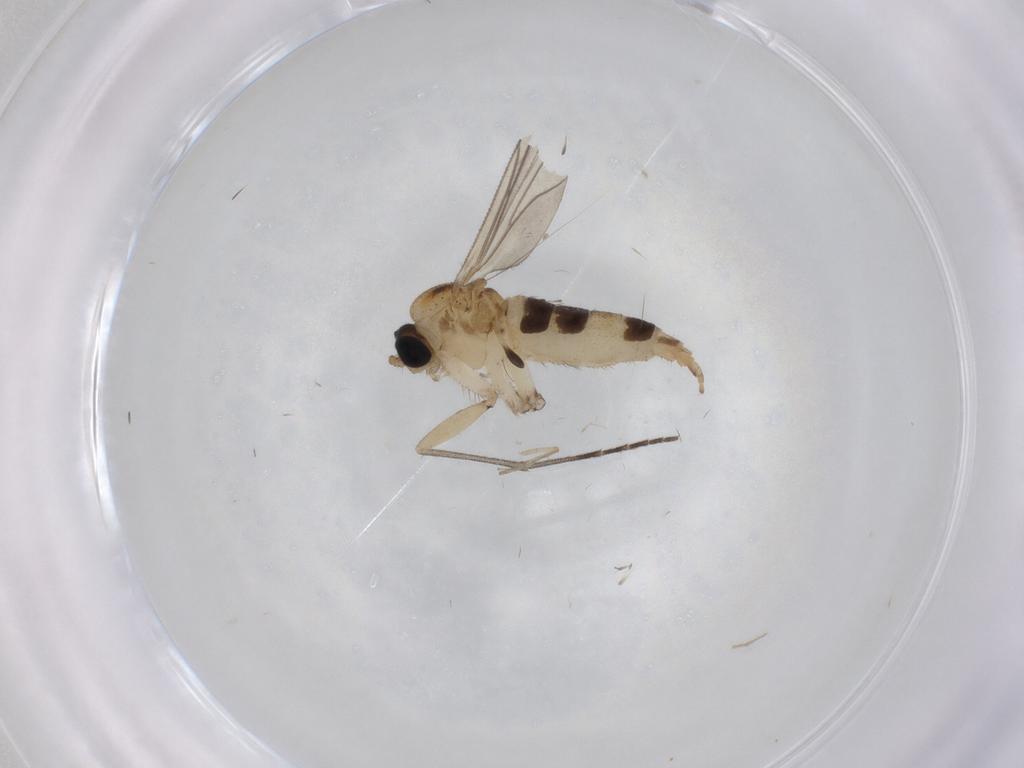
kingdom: Animalia
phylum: Arthropoda
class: Insecta
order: Diptera
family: Psychodidae
